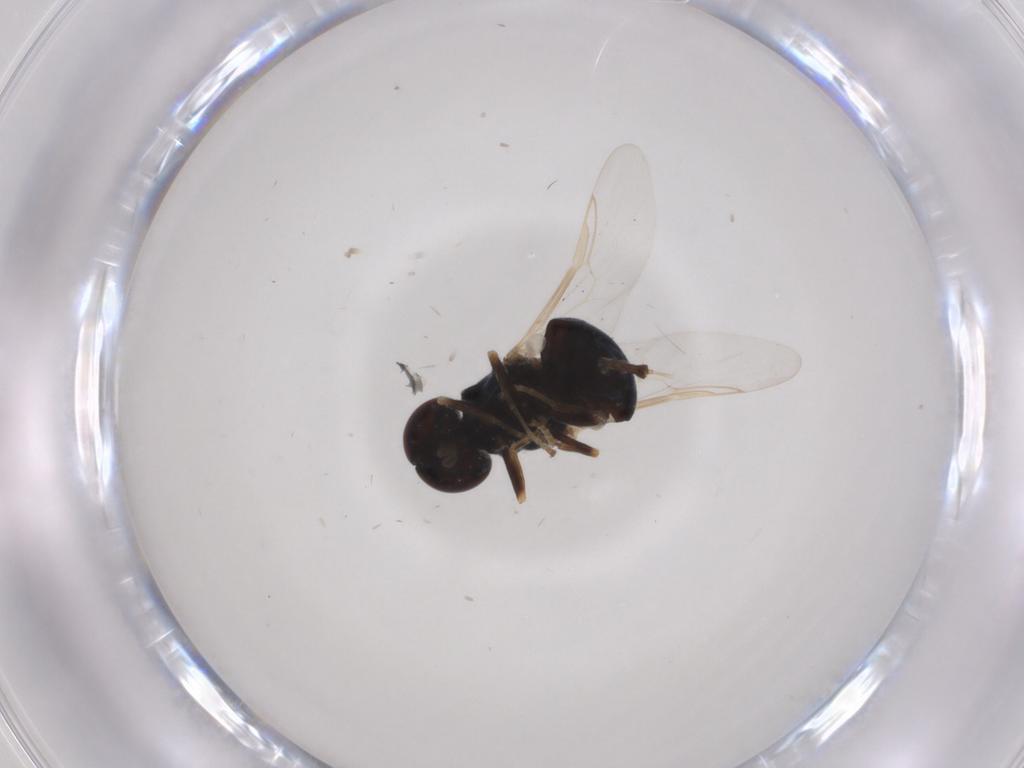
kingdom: Animalia
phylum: Arthropoda
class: Insecta
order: Diptera
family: Stratiomyidae
